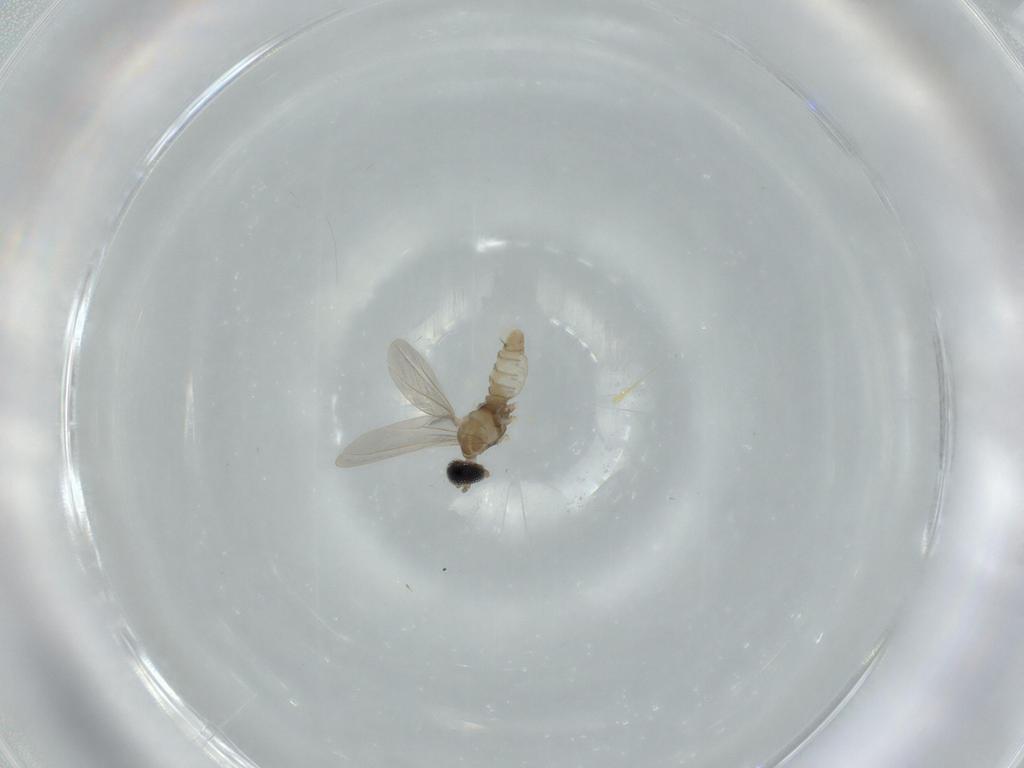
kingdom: Animalia
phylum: Arthropoda
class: Insecta
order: Diptera
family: Cecidomyiidae
